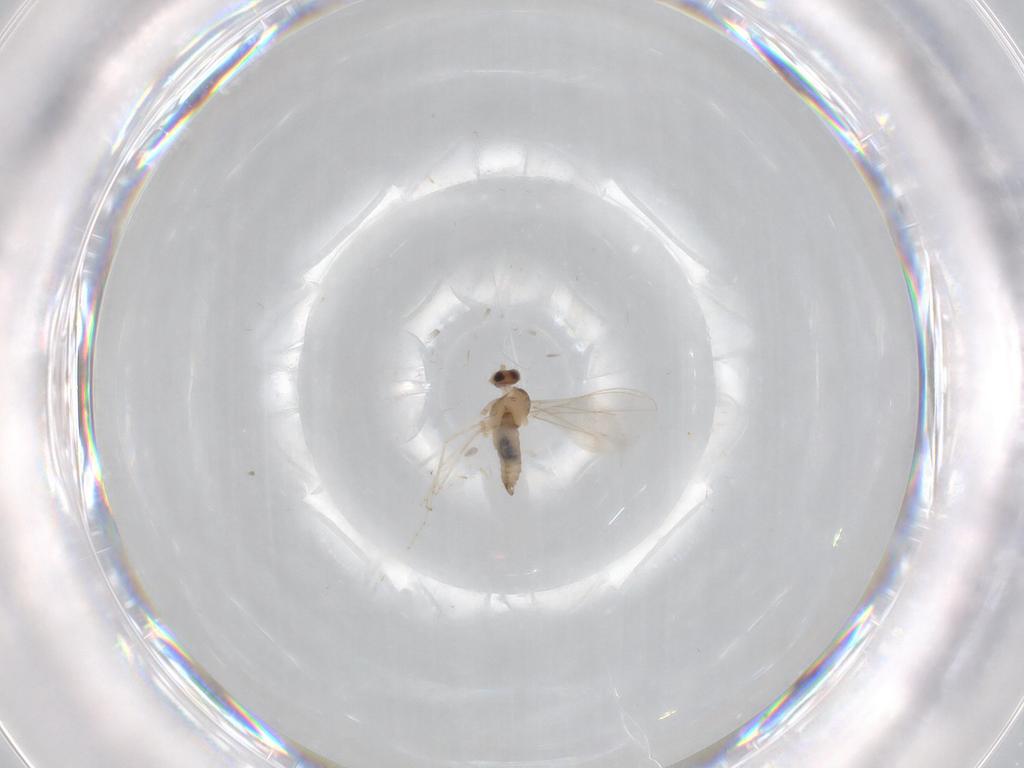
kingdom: Animalia
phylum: Arthropoda
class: Insecta
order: Diptera
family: Cecidomyiidae
